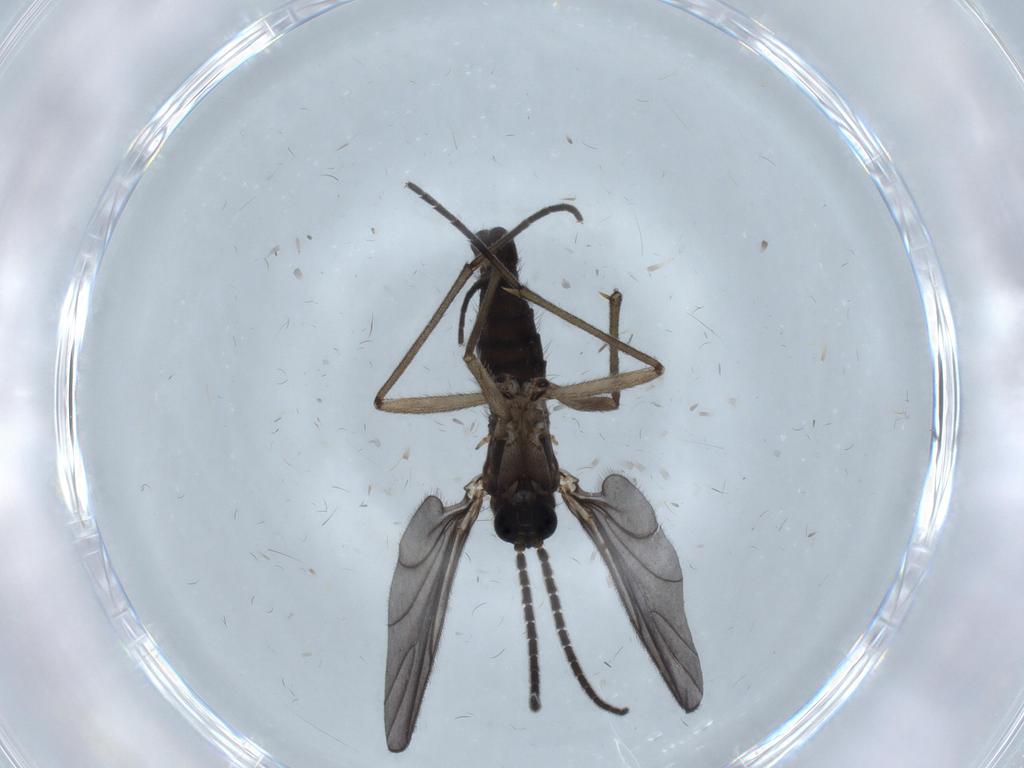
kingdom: Animalia
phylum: Arthropoda
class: Insecta
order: Diptera
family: Sciaridae
